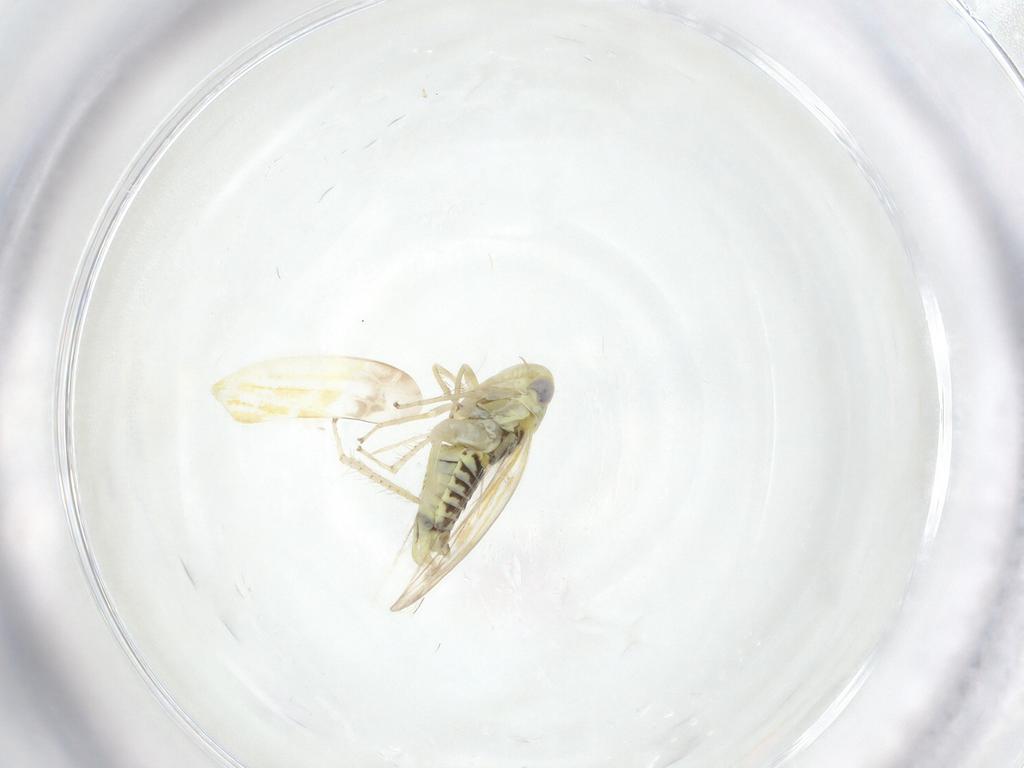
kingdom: Animalia
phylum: Arthropoda
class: Insecta
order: Hemiptera
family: Cicadellidae
